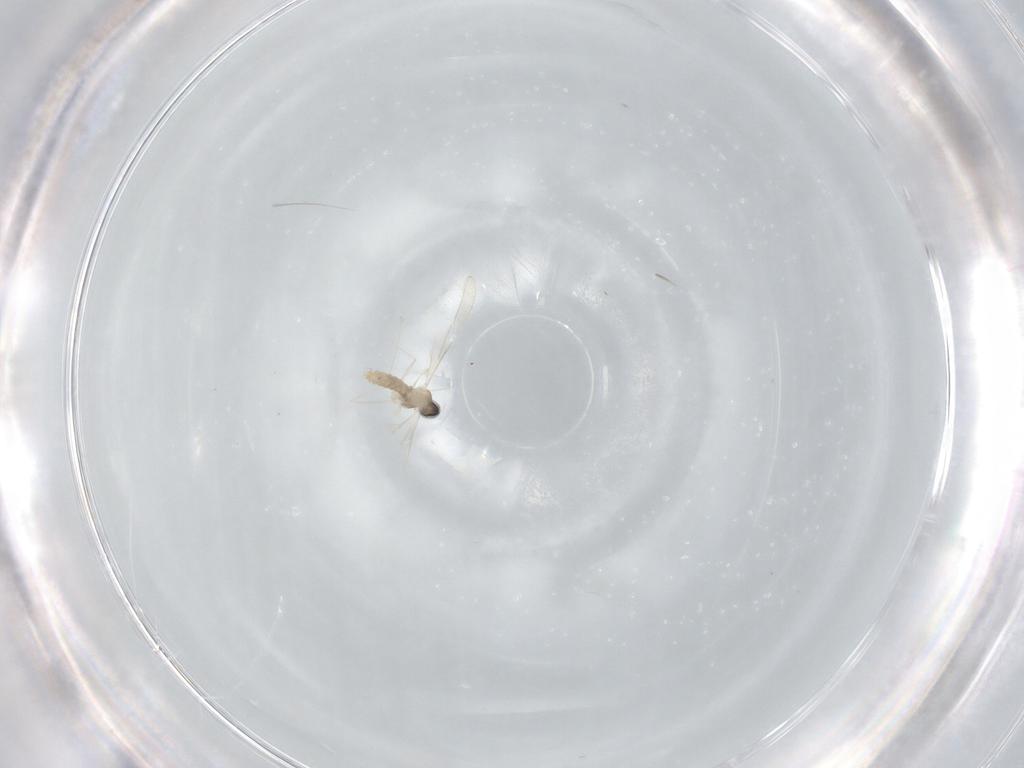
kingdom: Animalia
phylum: Arthropoda
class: Insecta
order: Diptera
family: Cecidomyiidae
